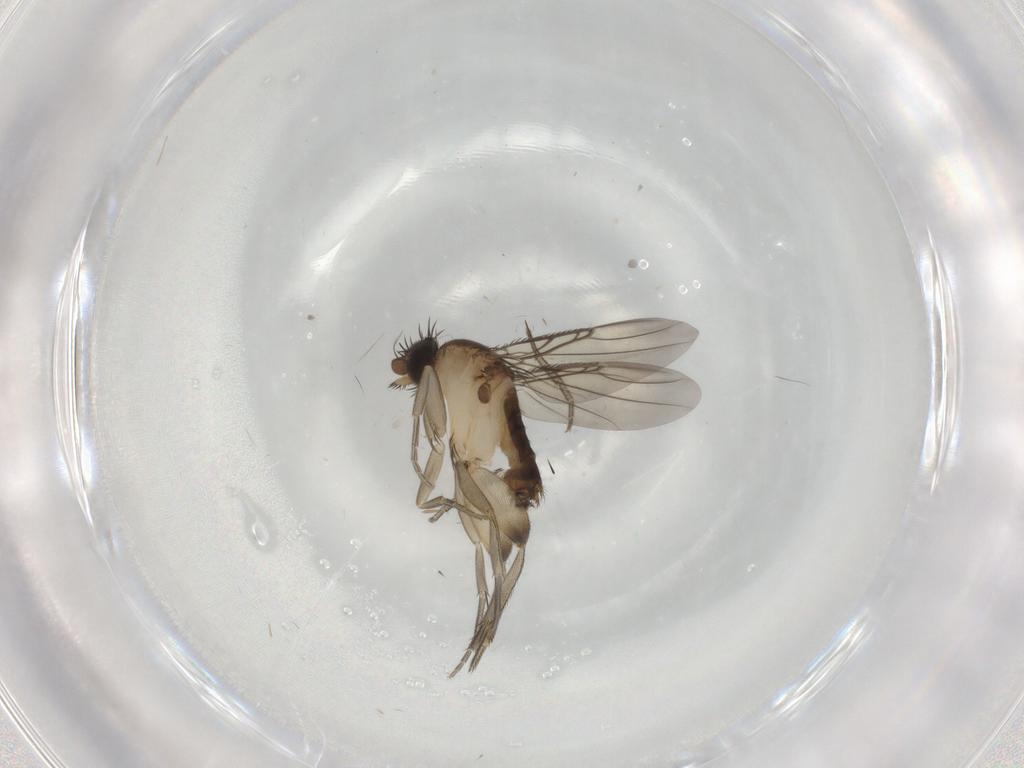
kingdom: Animalia
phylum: Arthropoda
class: Insecta
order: Diptera
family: Phoridae
